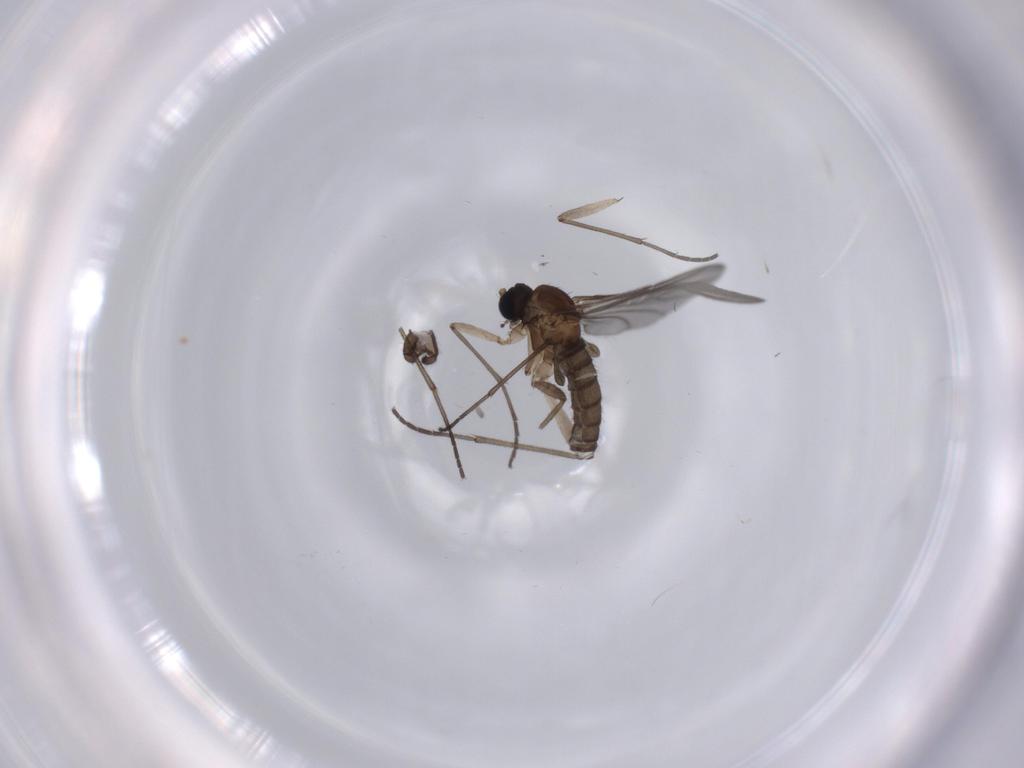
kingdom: Animalia
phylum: Arthropoda
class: Insecta
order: Diptera
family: Sciaridae
